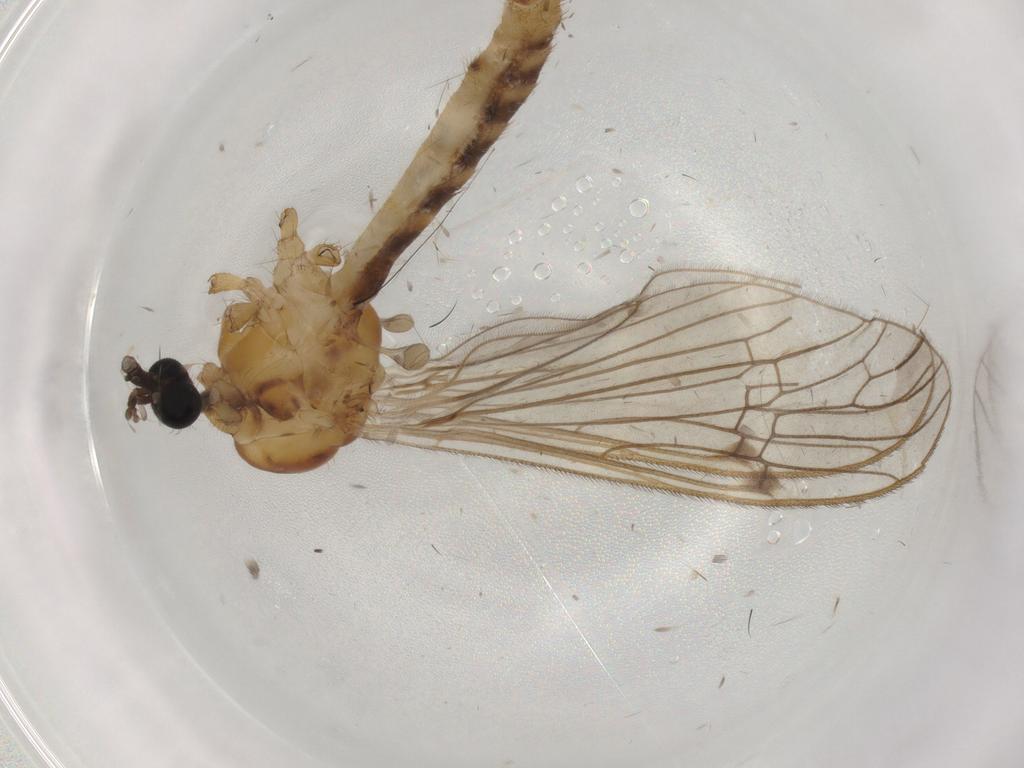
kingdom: Animalia
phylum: Arthropoda
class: Insecta
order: Diptera
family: Limoniidae
